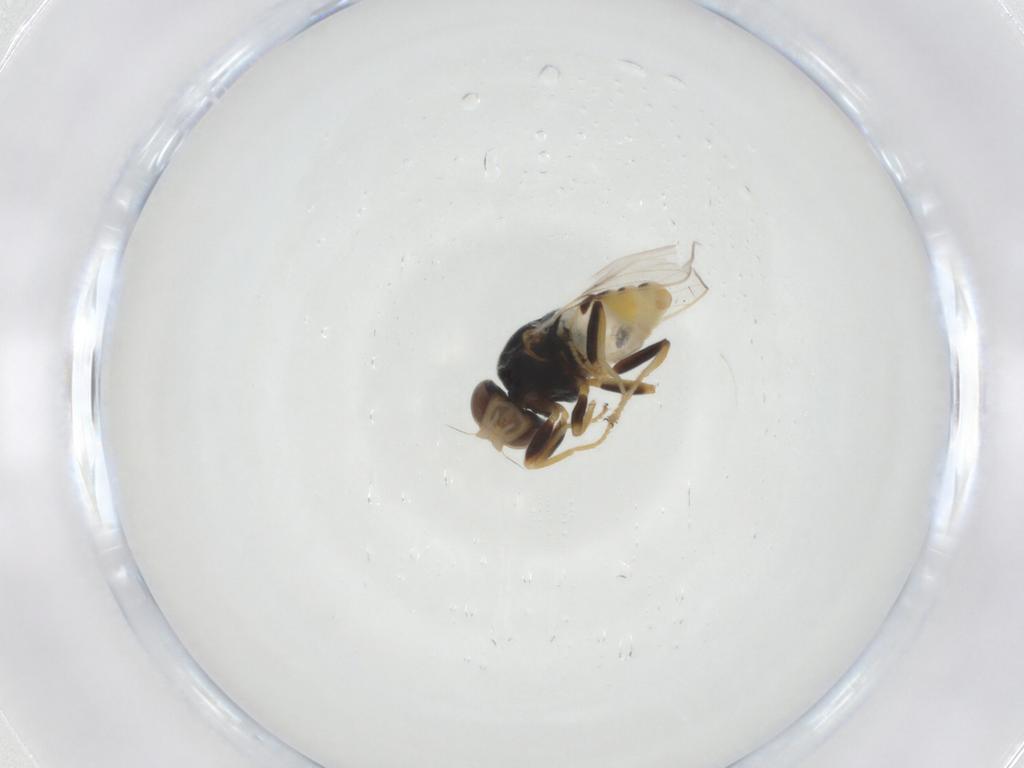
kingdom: Animalia
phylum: Arthropoda
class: Insecta
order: Diptera
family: Chloropidae
